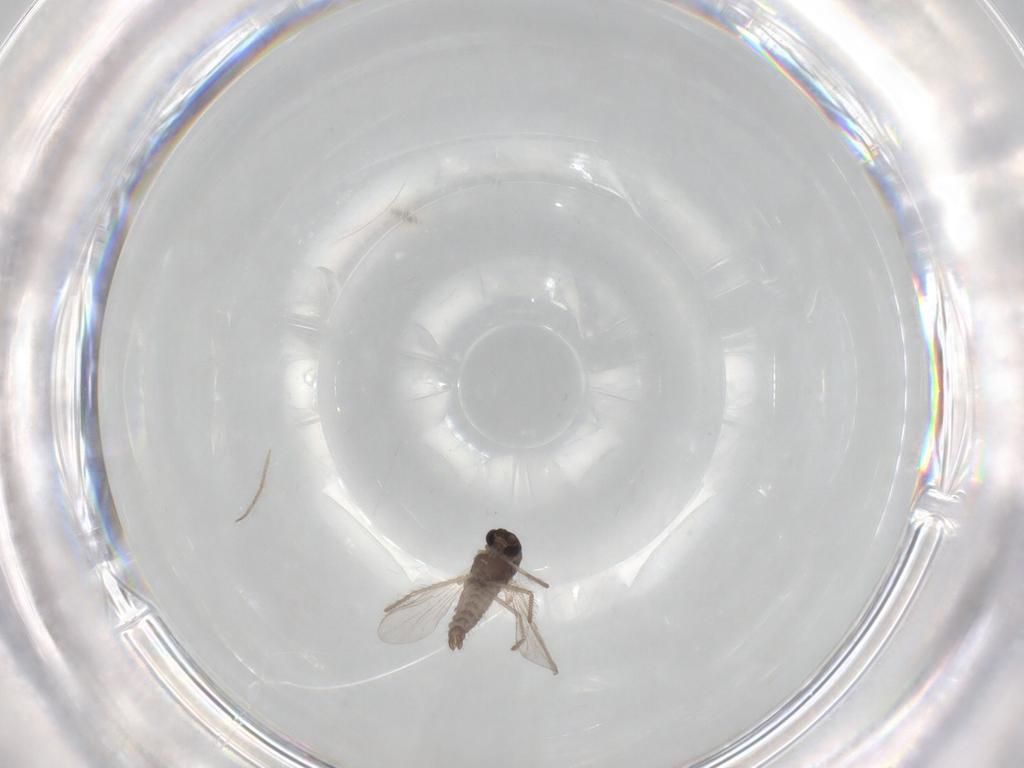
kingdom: Animalia
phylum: Arthropoda
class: Insecta
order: Diptera
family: Chironomidae
